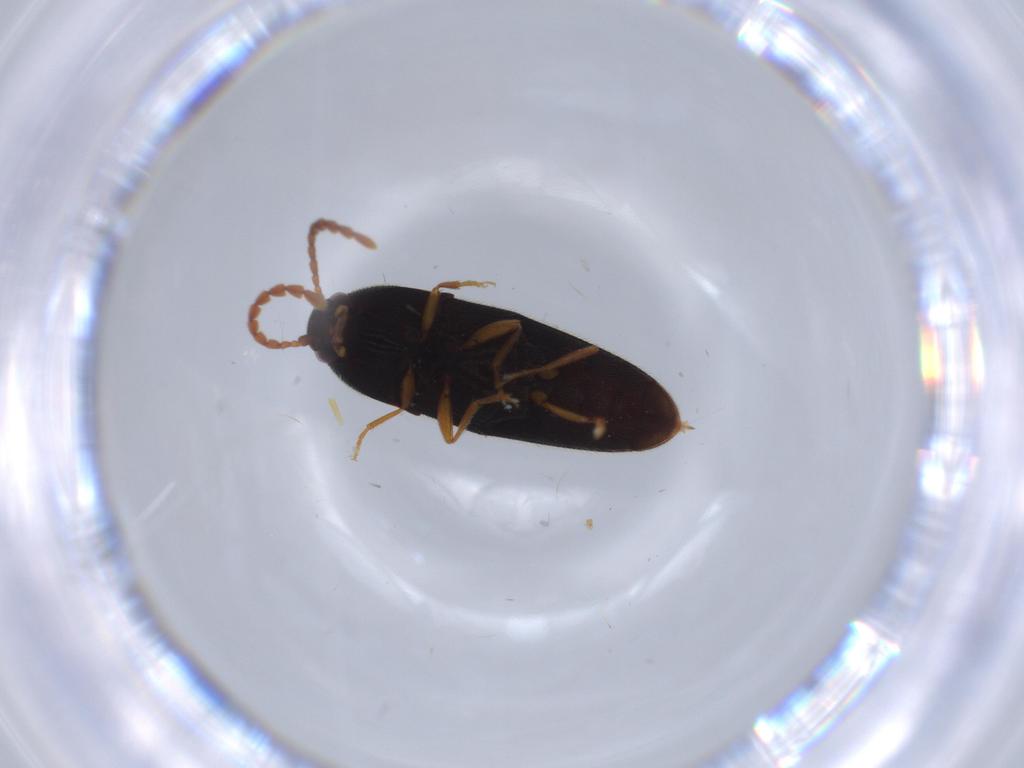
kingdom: Animalia
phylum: Arthropoda
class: Insecta
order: Coleoptera
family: Elateridae
